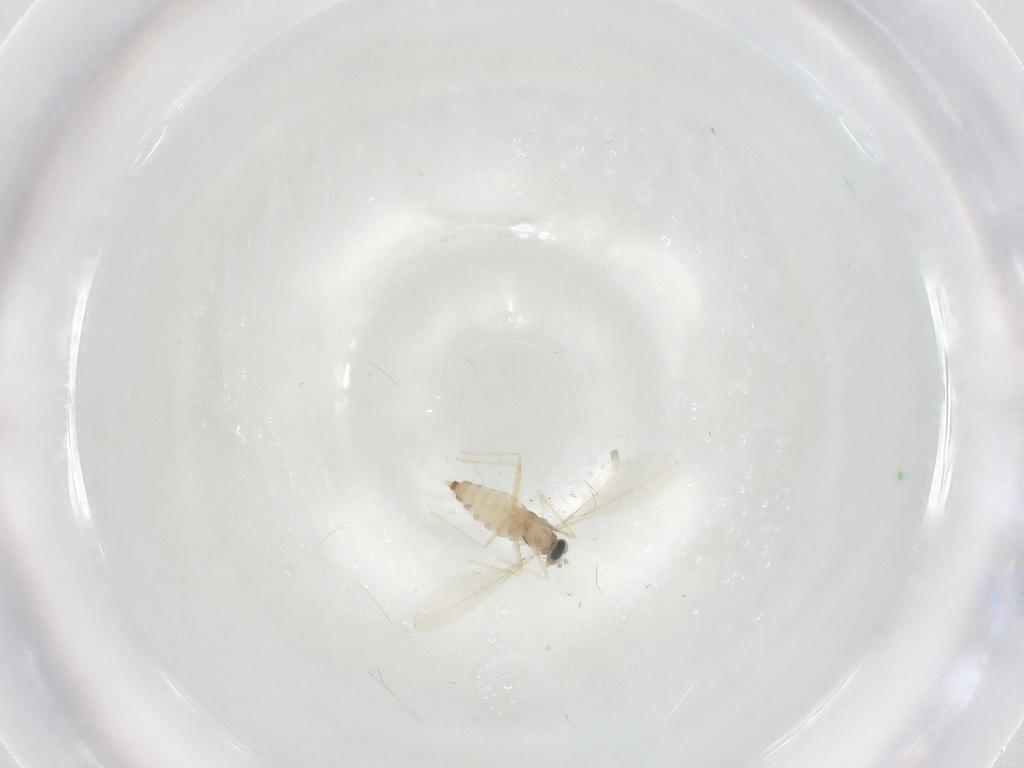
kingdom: Animalia
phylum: Arthropoda
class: Insecta
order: Diptera
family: Cecidomyiidae
